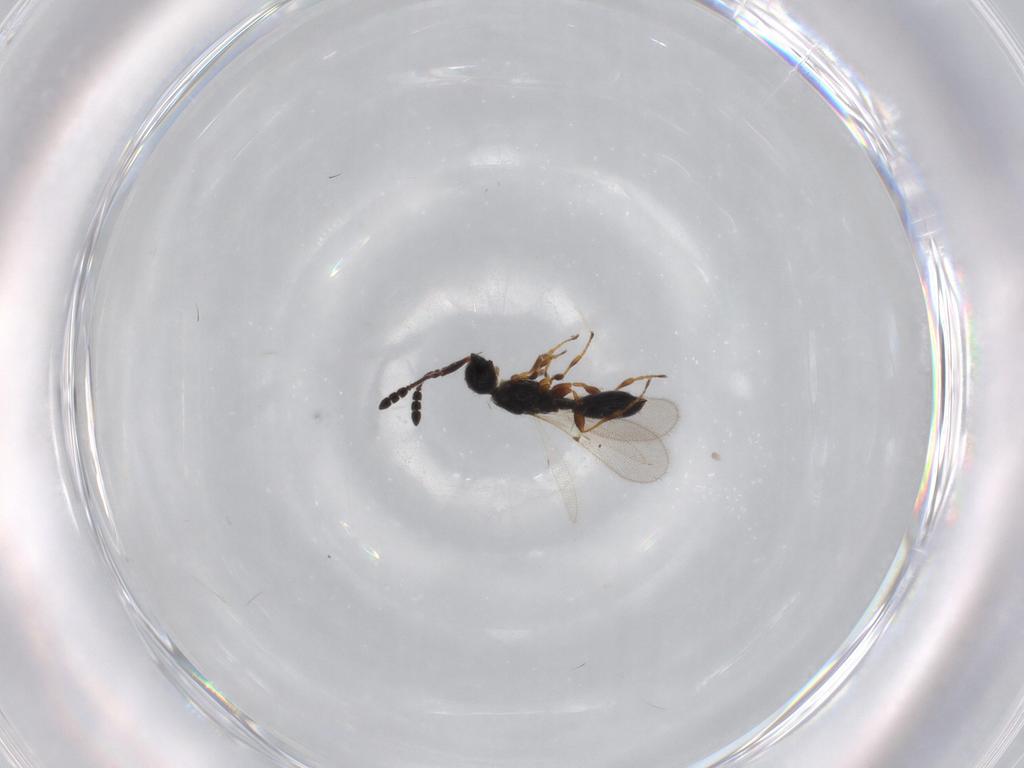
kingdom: Animalia
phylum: Arthropoda
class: Insecta
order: Hymenoptera
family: Diapriidae
